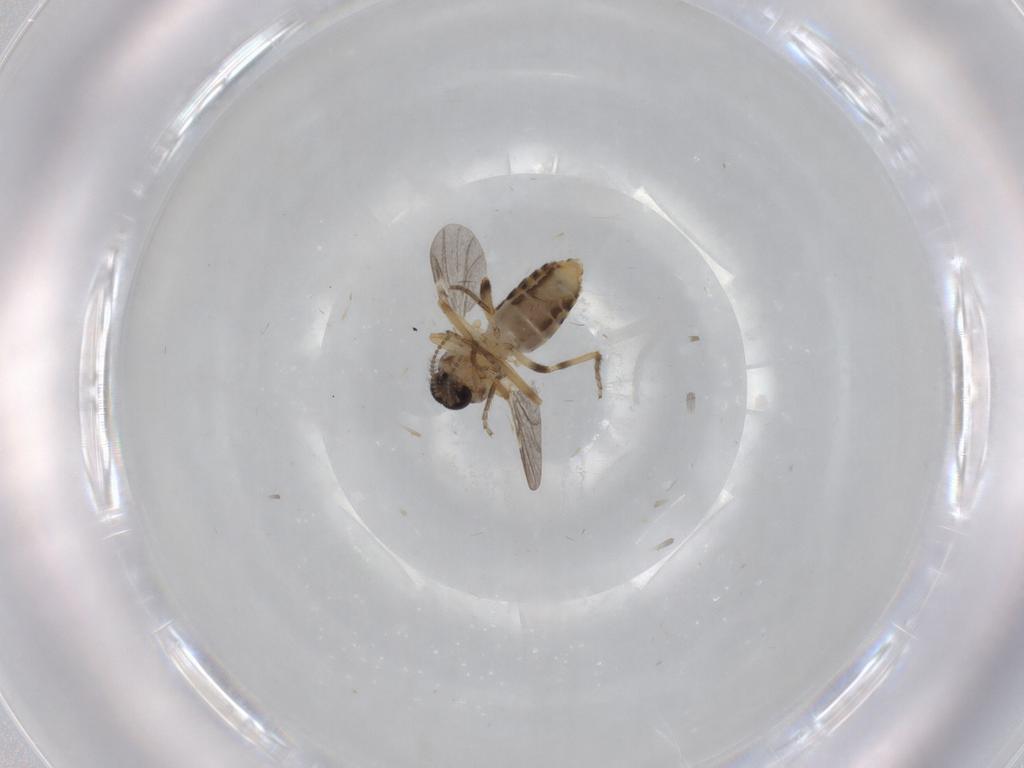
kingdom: Animalia
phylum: Arthropoda
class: Insecta
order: Diptera
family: Ceratopogonidae
